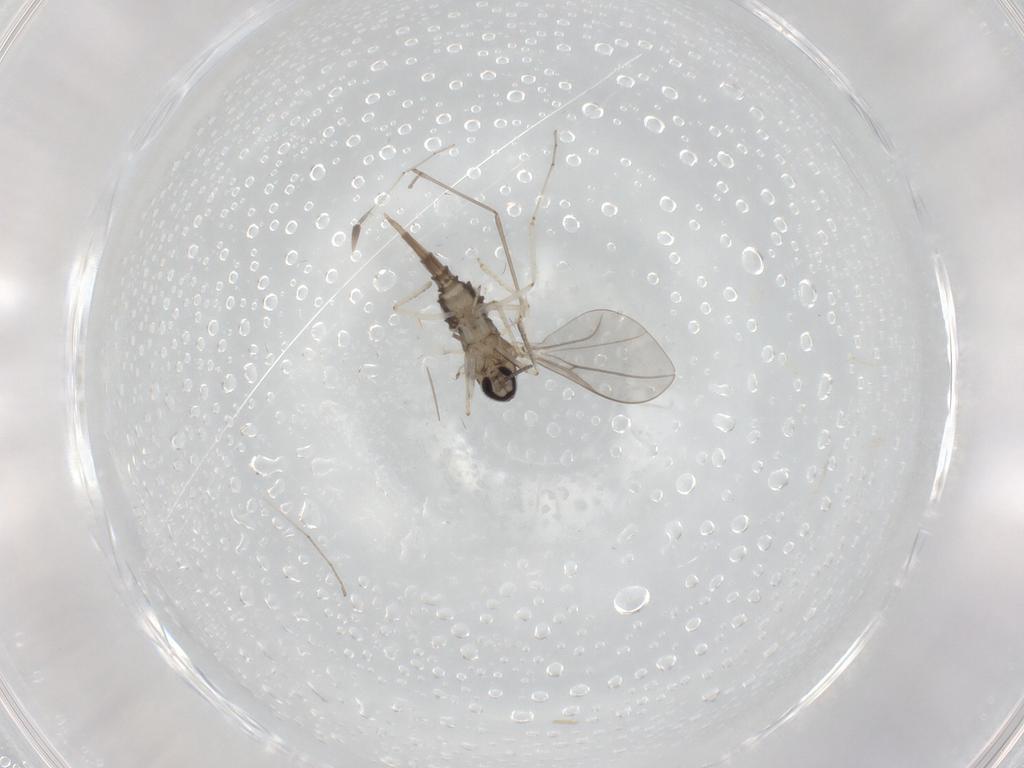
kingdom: Animalia
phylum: Arthropoda
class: Insecta
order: Diptera
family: Cecidomyiidae
